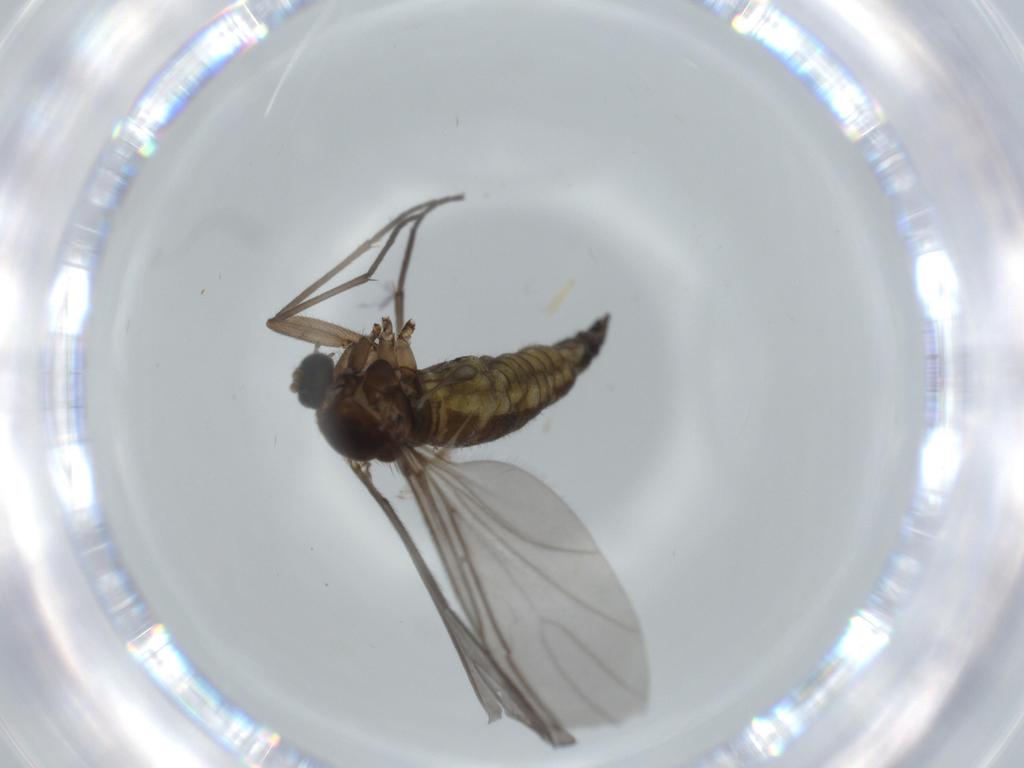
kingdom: Animalia
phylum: Arthropoda
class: Insecta
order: Diptera
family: Sciaridae
